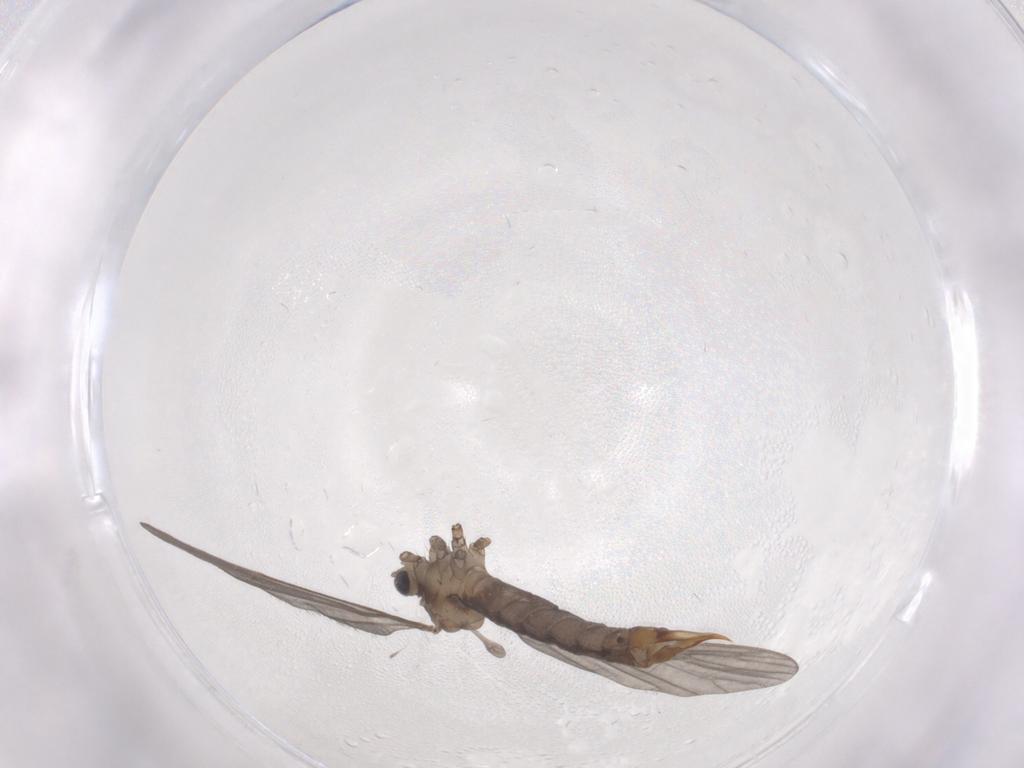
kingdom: Animalia
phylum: Arthropoda
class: Insecta
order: Diptera
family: Limoniidae
